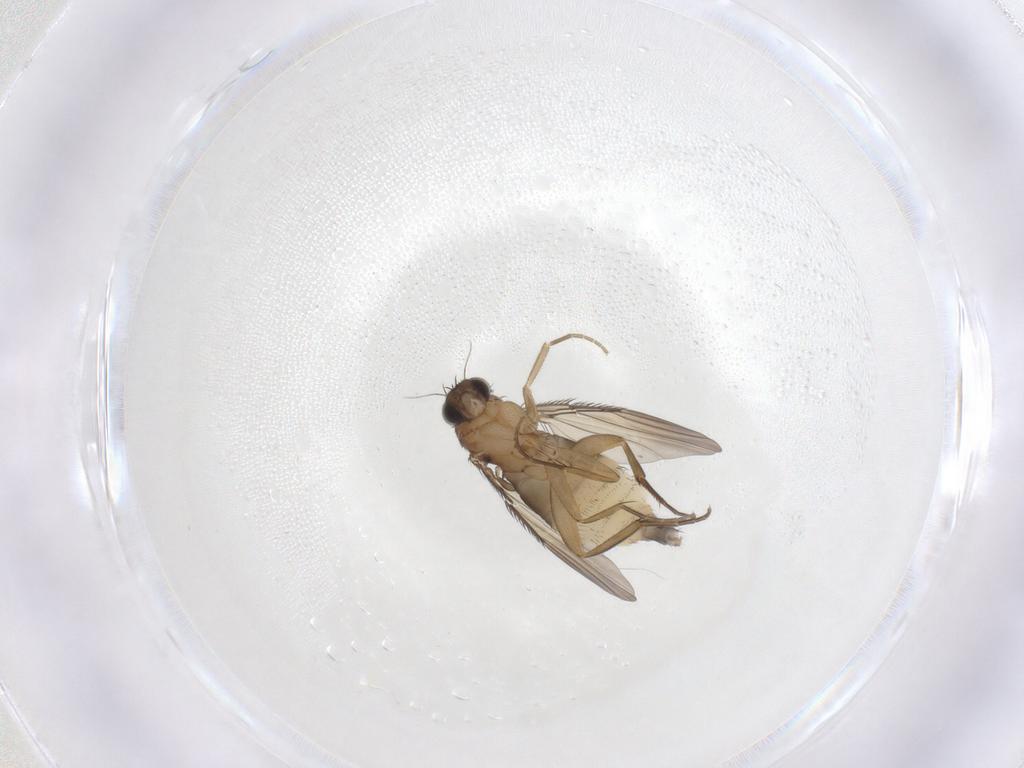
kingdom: Animalia
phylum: Arthropoda
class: Insecta
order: Diptera
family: Phoridae
